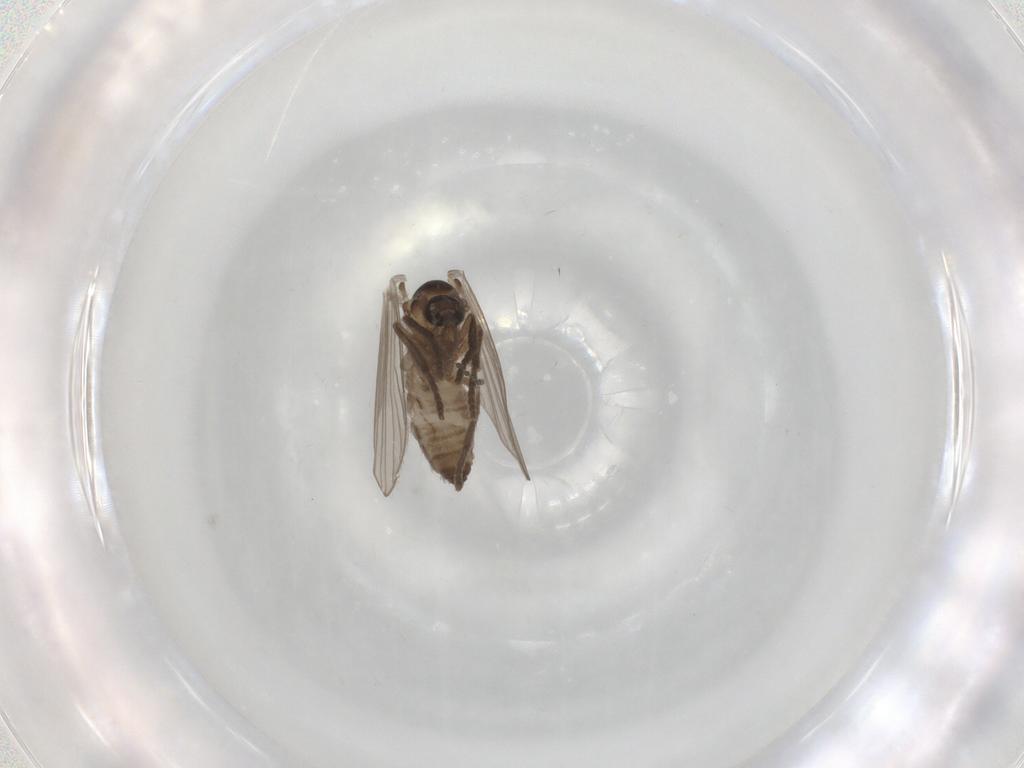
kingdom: Animalia
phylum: Arthropoda
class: Insecta
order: Diptera
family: Psychodidae
